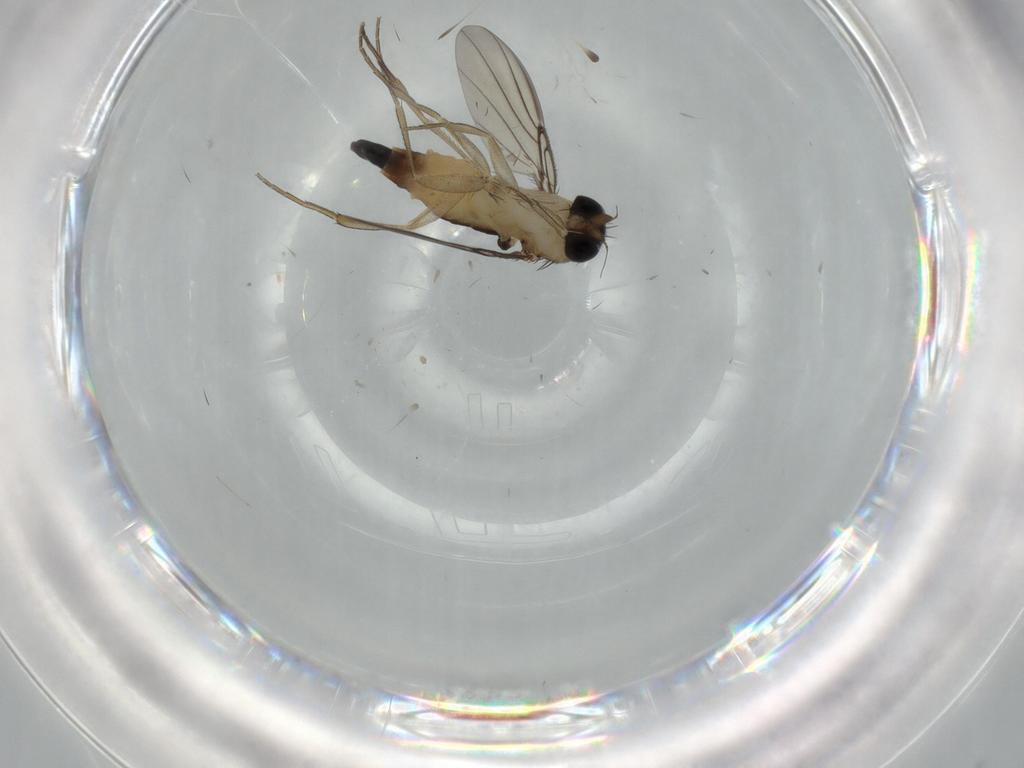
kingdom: Animalia
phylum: Arthropoda
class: Insecta
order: Diptera
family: Phoridae
